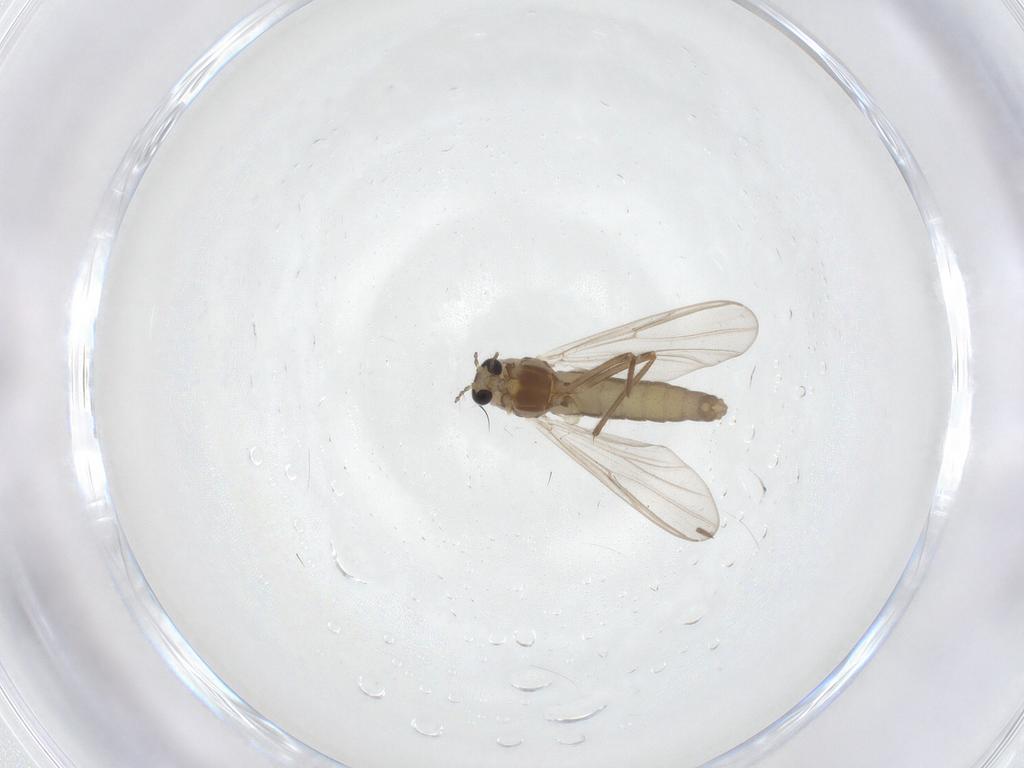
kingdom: Animalia
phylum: Arthropoda
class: Insecta
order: Diptera
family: Chironomidae
